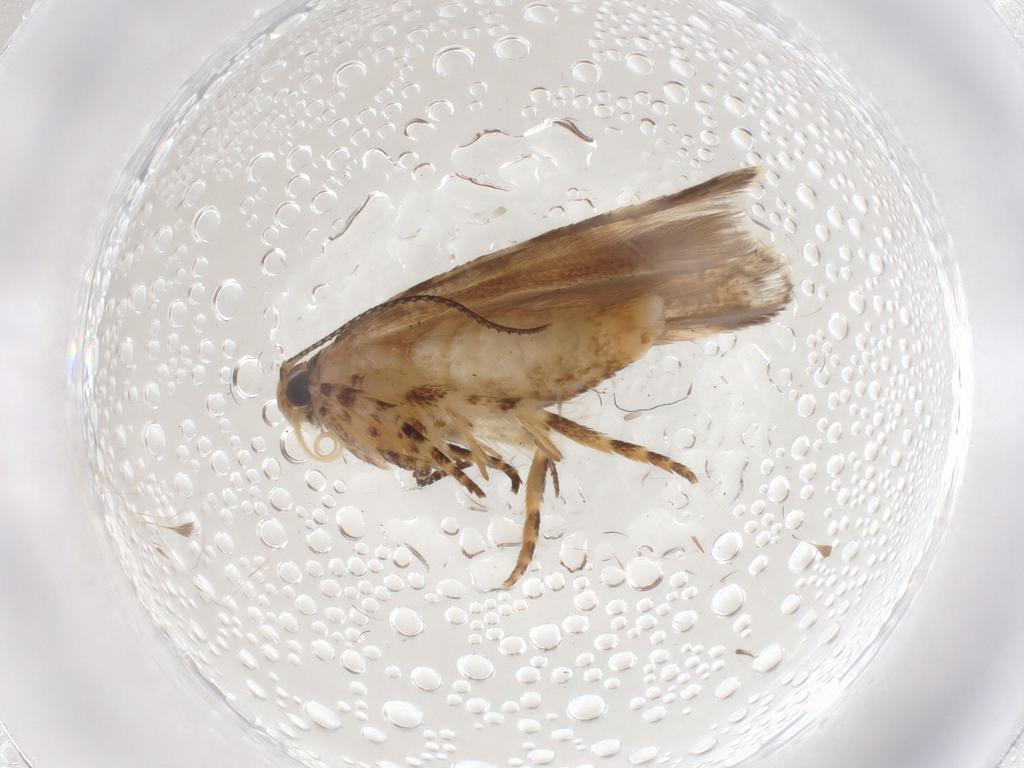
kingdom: Animalia
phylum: Arthropoda
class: Insecta
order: Lepidoptera
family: Gelechiidae
